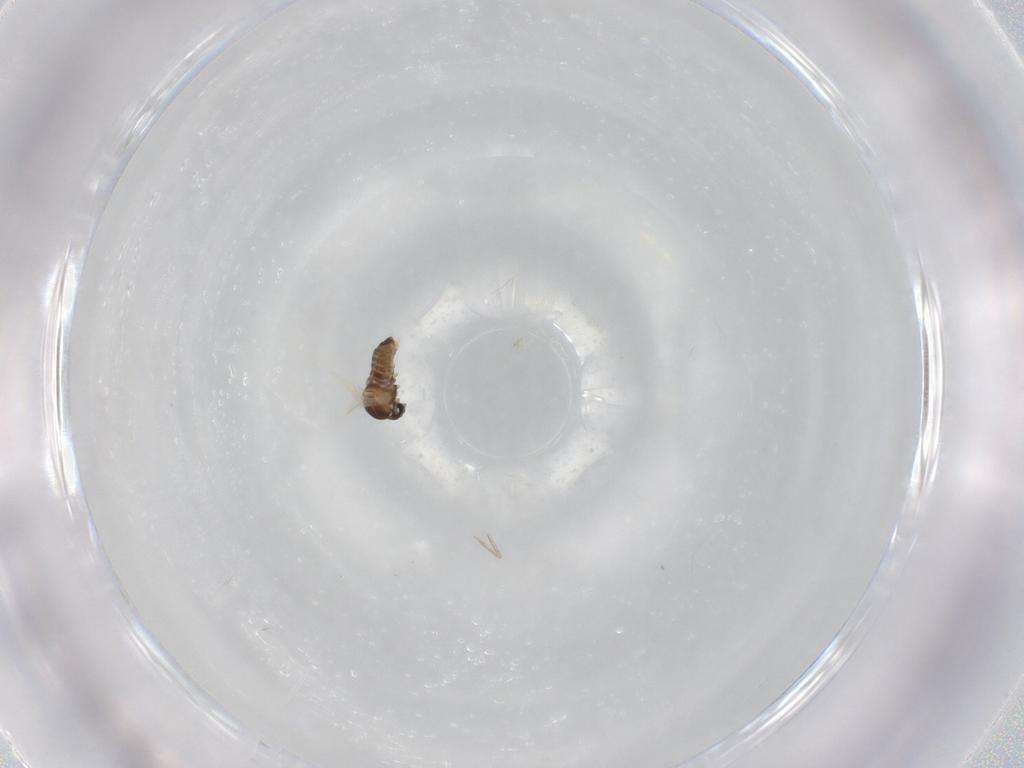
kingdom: Animalia
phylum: Arthropoda
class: Insecta
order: Diptera
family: Cecidomyiidae
